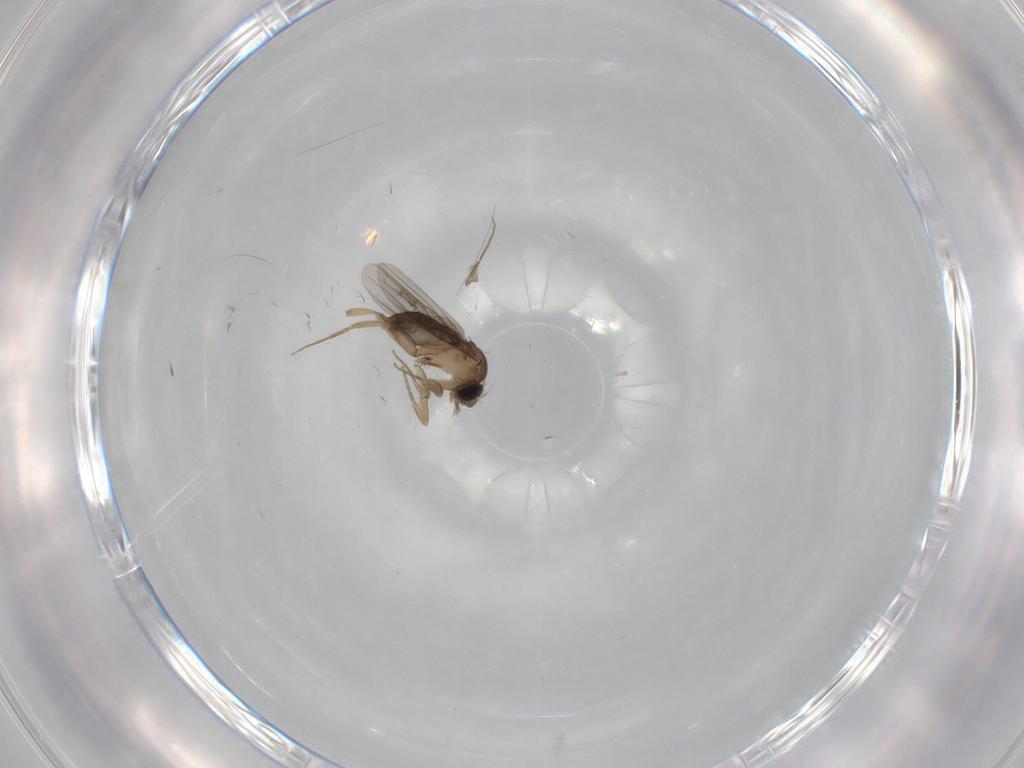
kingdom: Animalia
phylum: Arthropoda
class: Insecta
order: Diptera
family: Phoridae
